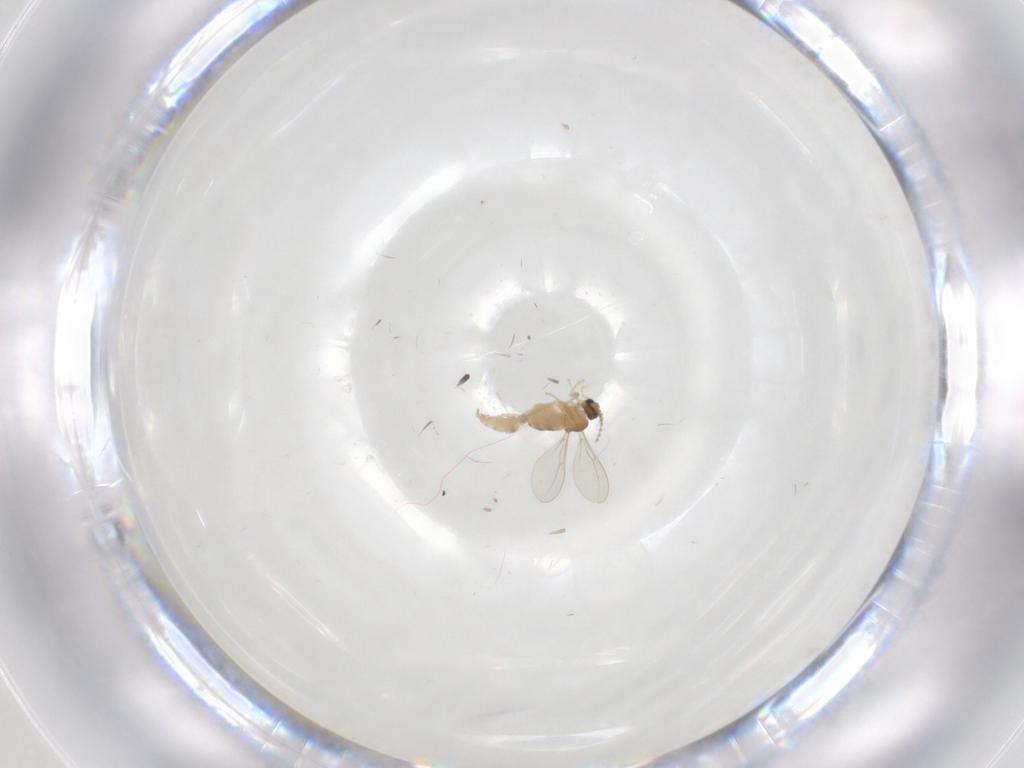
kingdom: Animalia
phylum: Arthropoda
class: Insecta
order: Diptera
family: Cecidomyiidae
